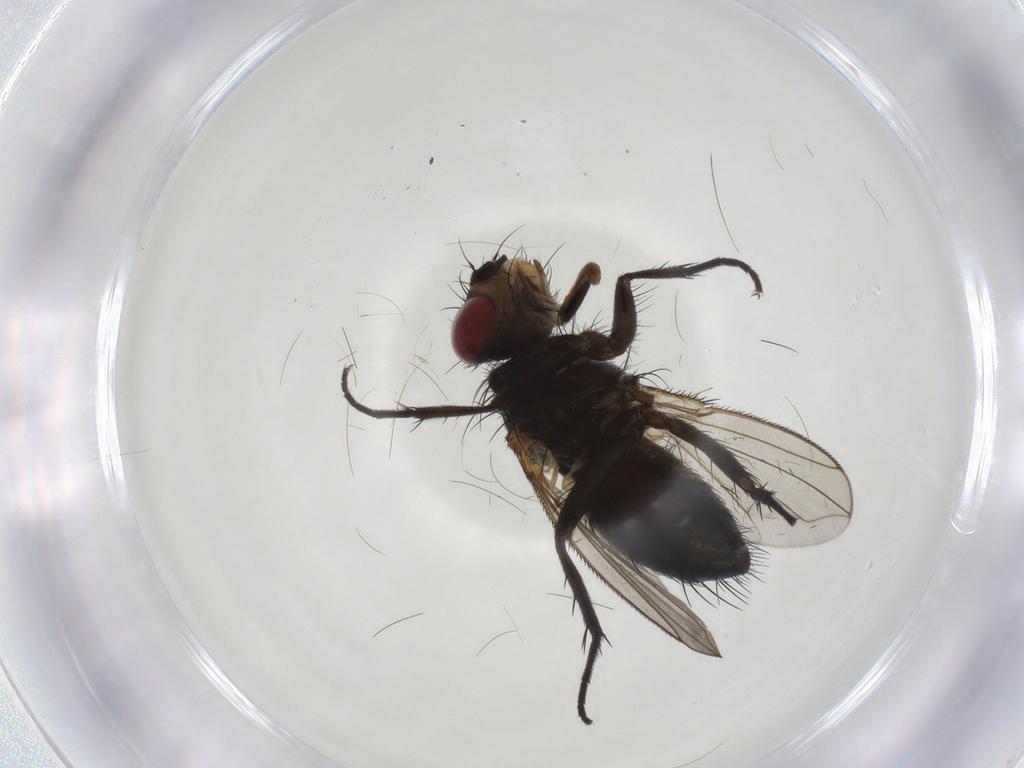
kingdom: Animalia
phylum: Arthropoda
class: Insecta
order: Diptera
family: Calliphoridae
